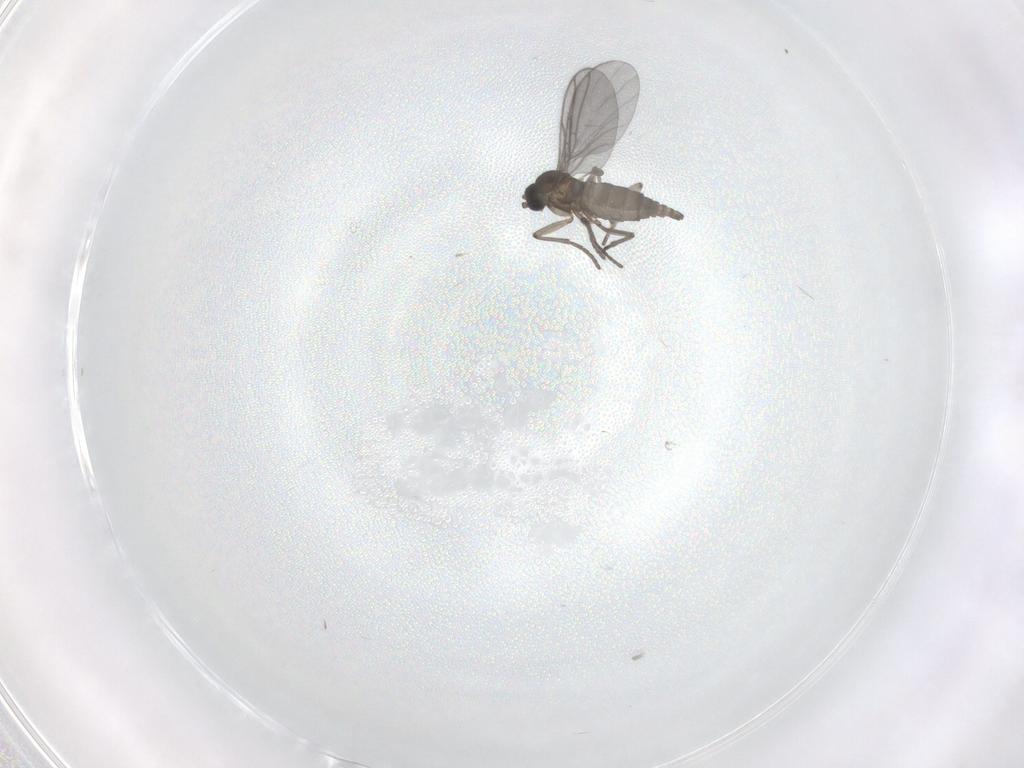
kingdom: Animalia
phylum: Arthropoda
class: Insecta
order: Diptera
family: Sciaridae
